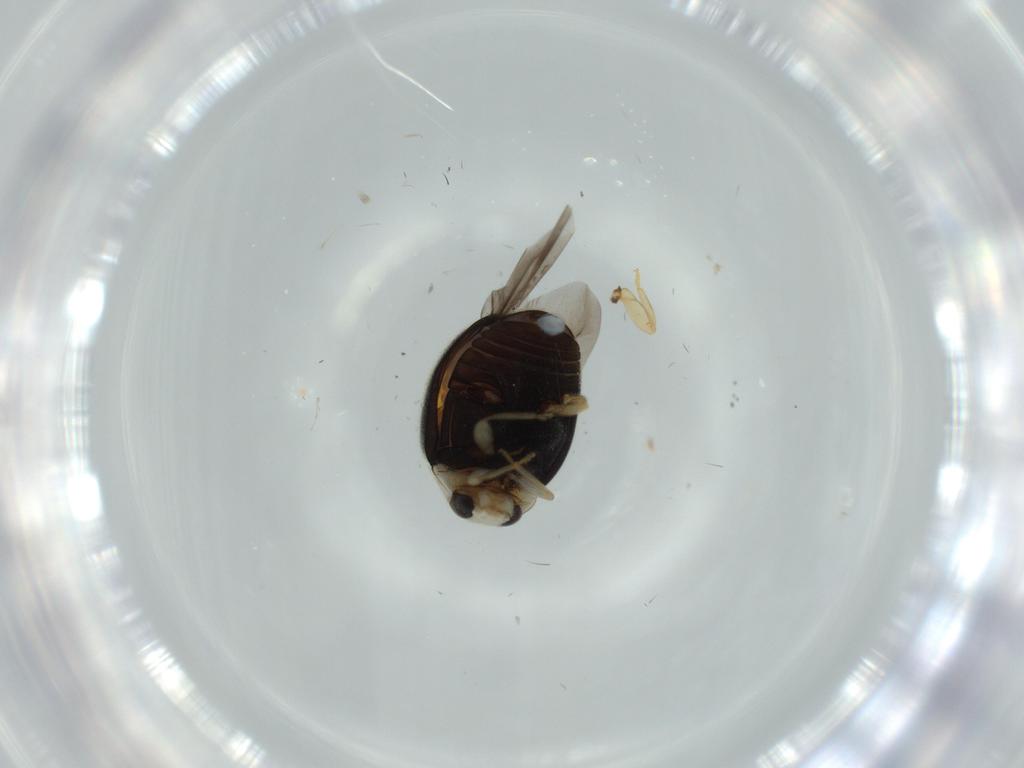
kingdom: Animalia
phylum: Arthropoda
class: Insecta
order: Coleoptera
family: Coccinellidae
